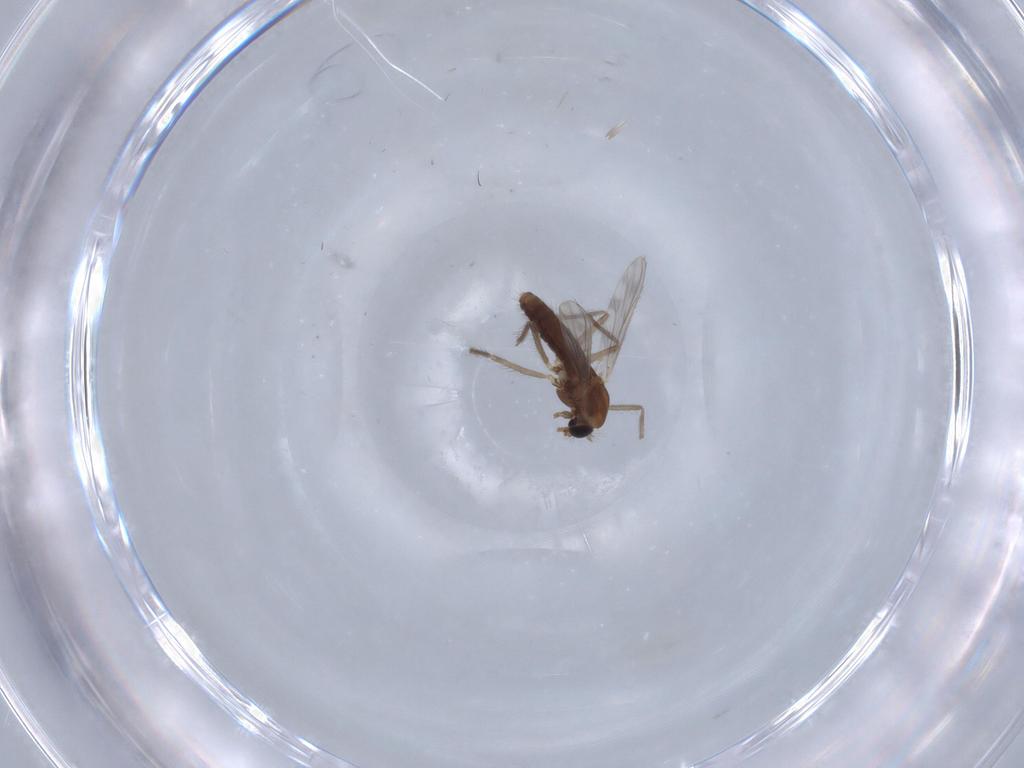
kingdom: Animalia
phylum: Arthropoda
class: Insecta
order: Diptera
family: Chironomidae
